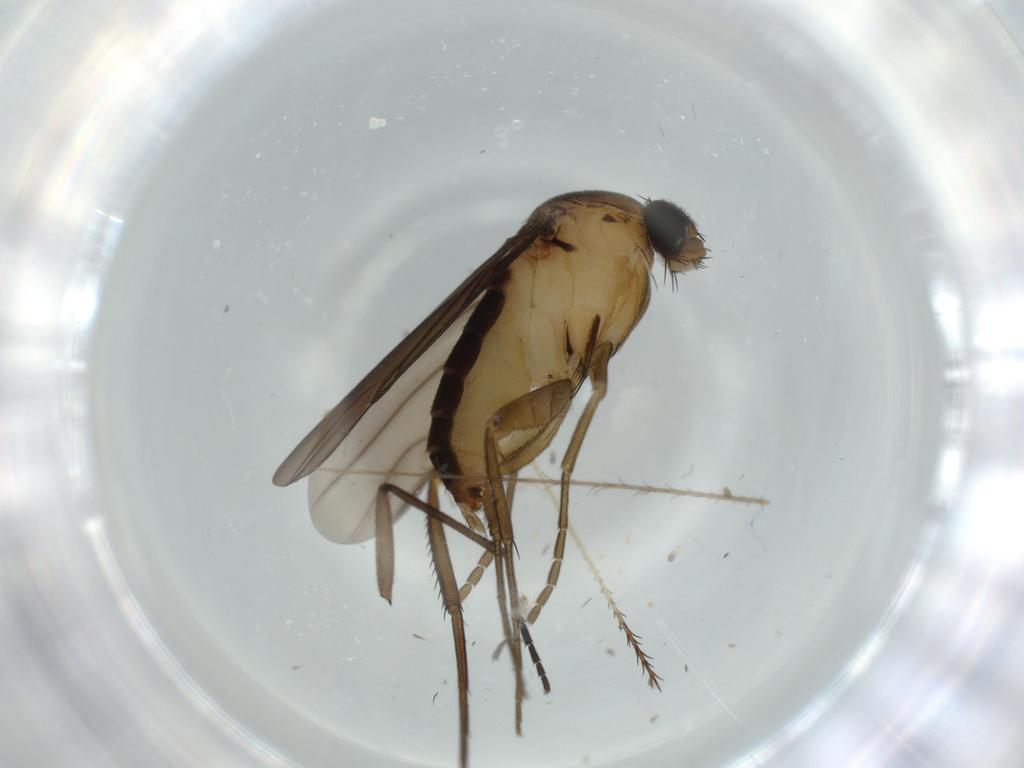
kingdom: Animalia
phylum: Arthropoda
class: Insecta
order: Diptera
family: Phoridae
